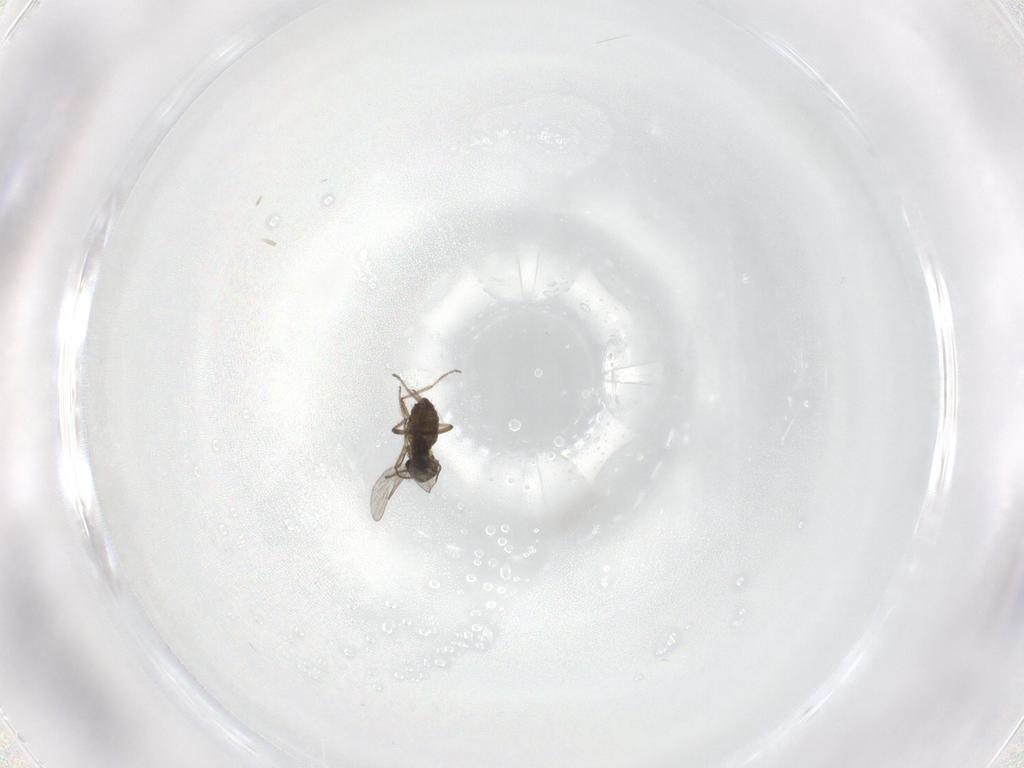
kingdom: Animalia
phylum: Arthropoda
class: Insecta
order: Diptera
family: Ceratopogonidae
